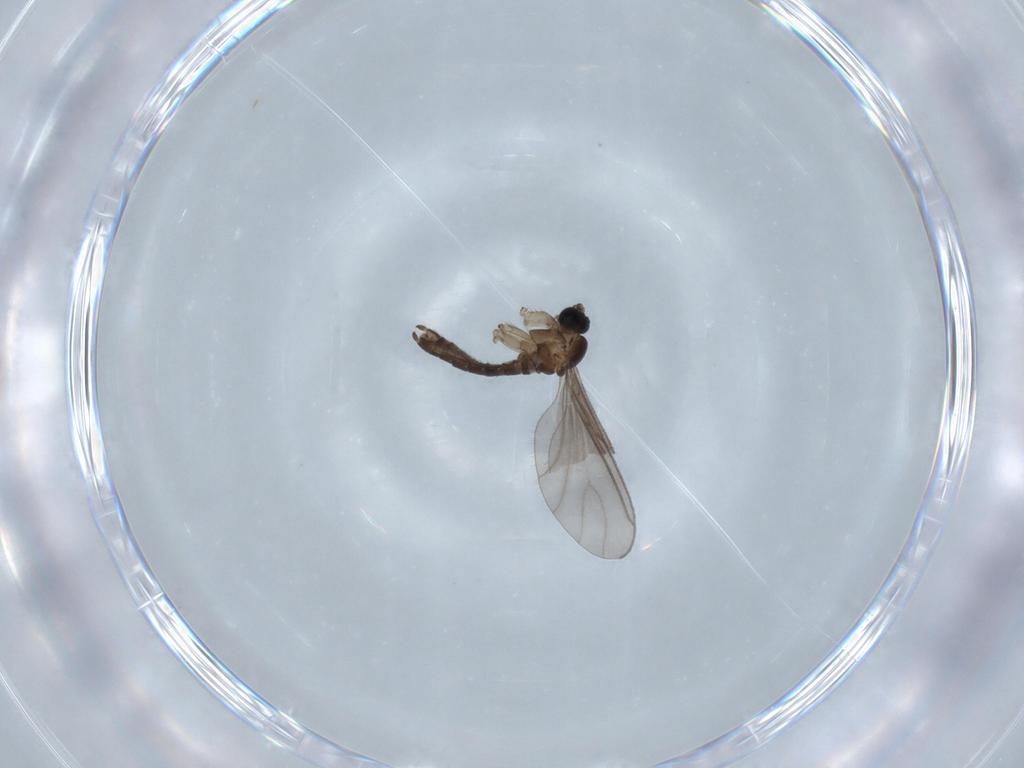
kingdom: Animalia
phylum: Arthropoda
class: Insecta
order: Diptera
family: Sciaridae
